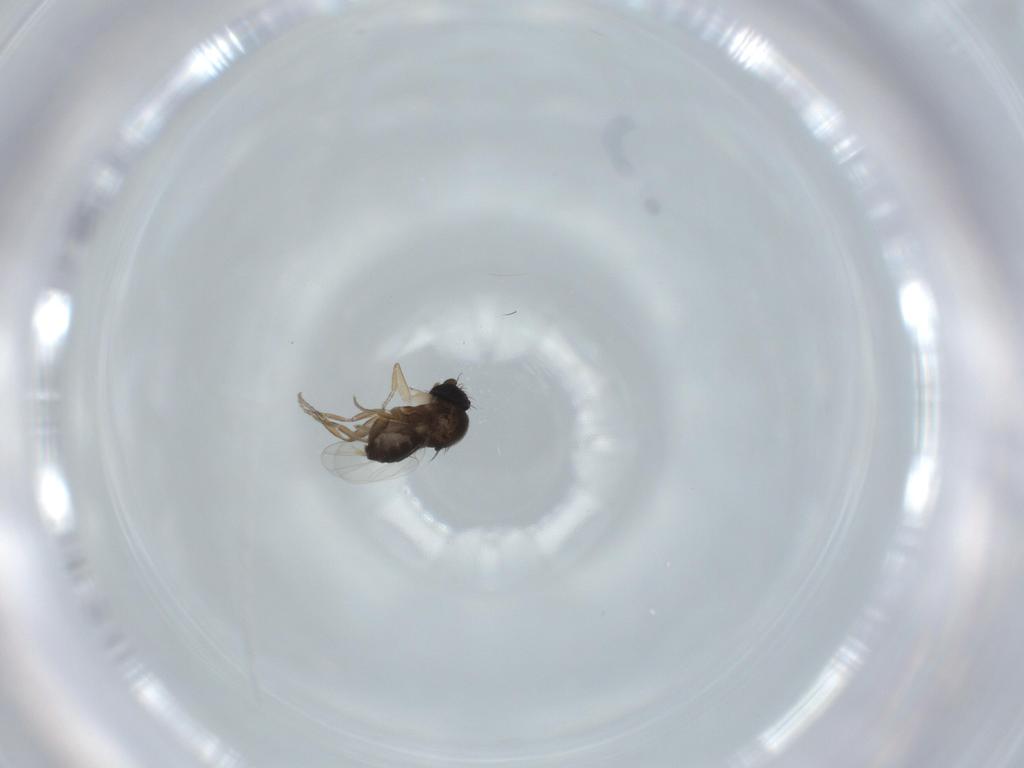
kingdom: Animalia
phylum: Arthropoda
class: Insecta
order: Diptera
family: Phoridae
